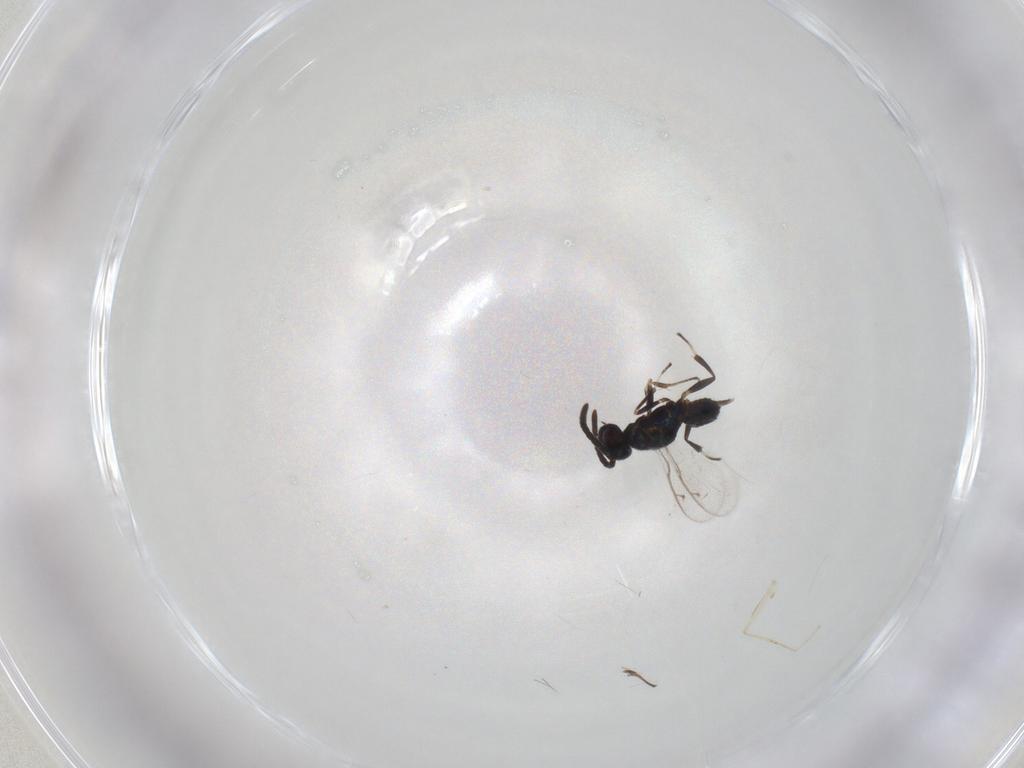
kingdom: Animalia
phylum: Arthropoda
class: Insecta
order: Hymenoptera
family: Eupelmidae
